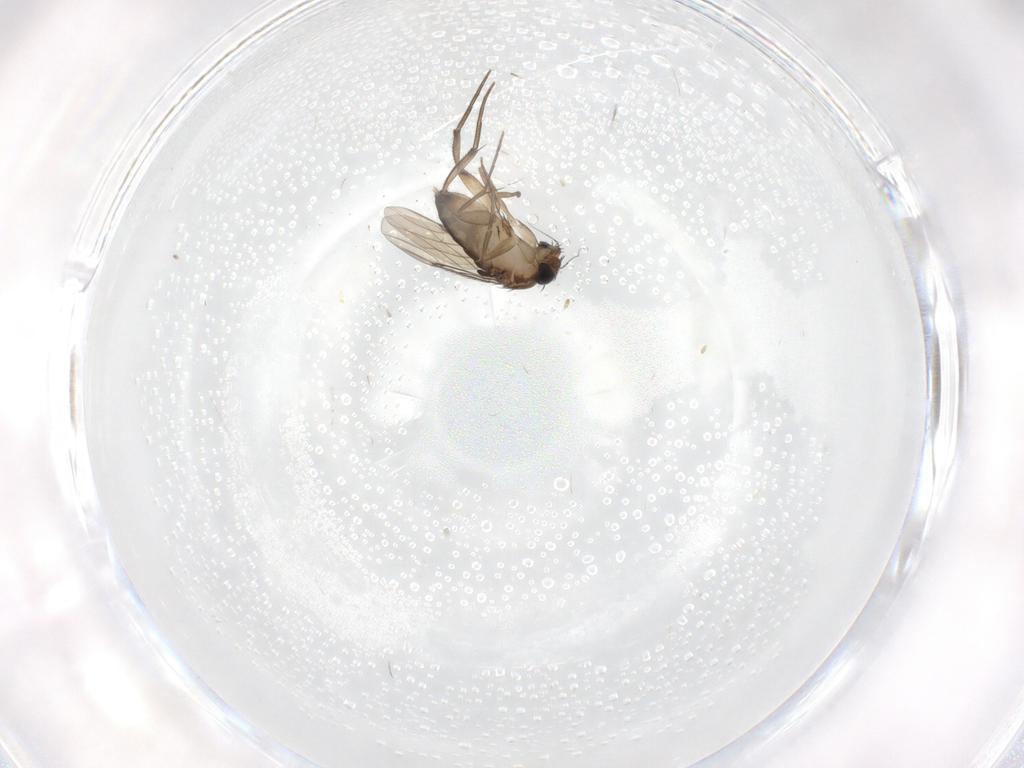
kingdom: Animalia
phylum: Arthropoda
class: Insecta
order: Diptera
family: Phoridae
